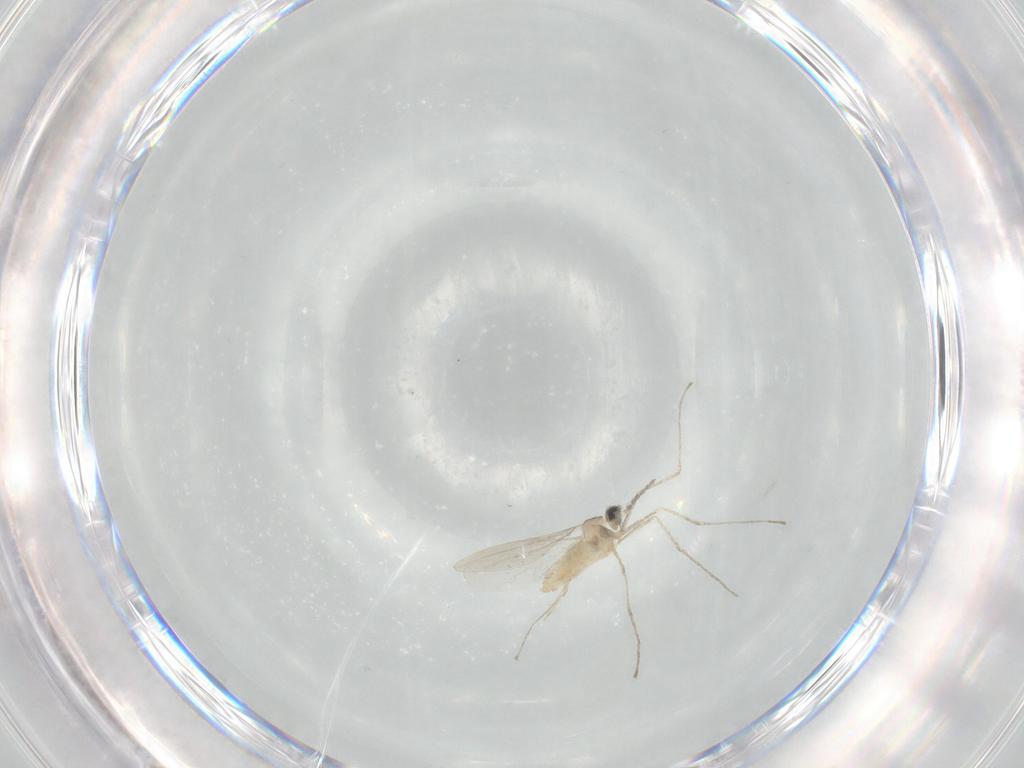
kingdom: Animalia
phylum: Arthropoda
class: Insecta
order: Diptera
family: Cecidomyiidae
